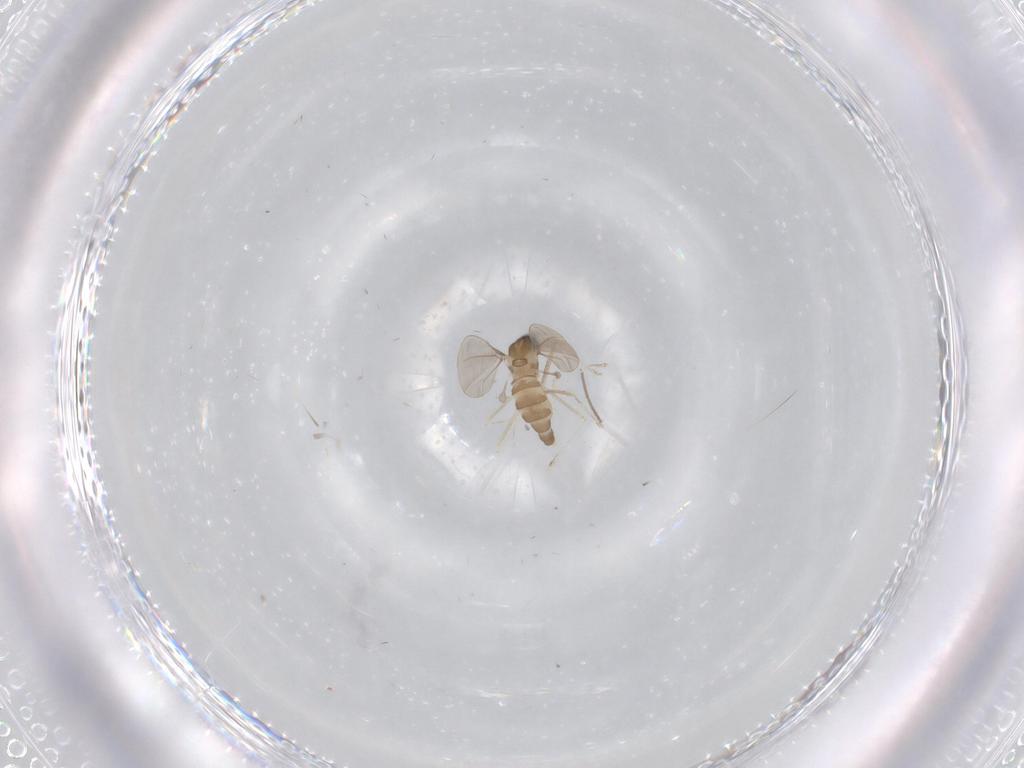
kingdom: Animalia
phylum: Arthropoda
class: Insecta
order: Diptera
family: Cecidomyiidae
